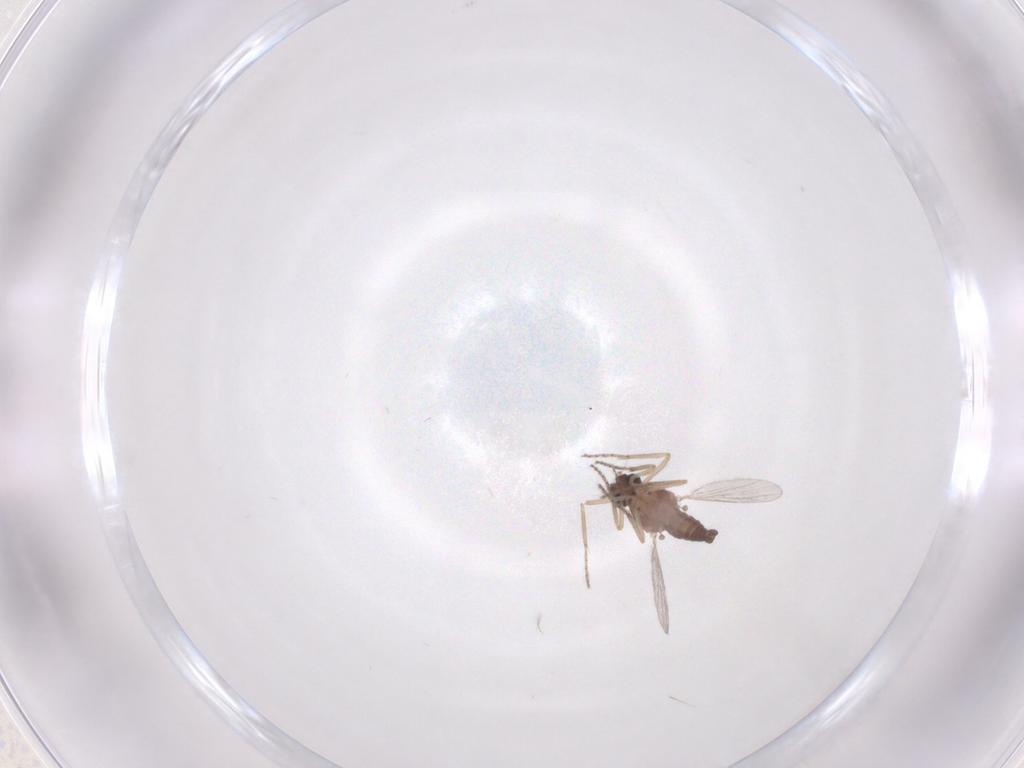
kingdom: Animalia
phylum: Arthropoda
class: Insecta
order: Diptera
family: Ceratopogonidae
